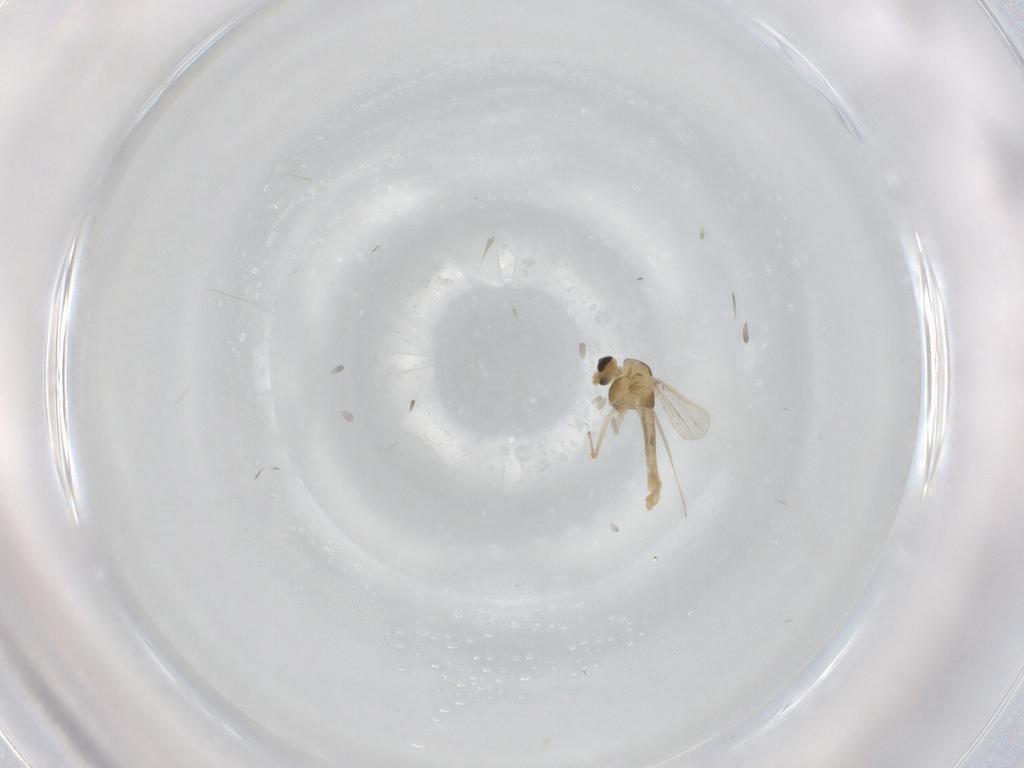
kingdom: Animalia
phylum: Arthropoda
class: Insecta
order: Diptera
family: Chironomidae
